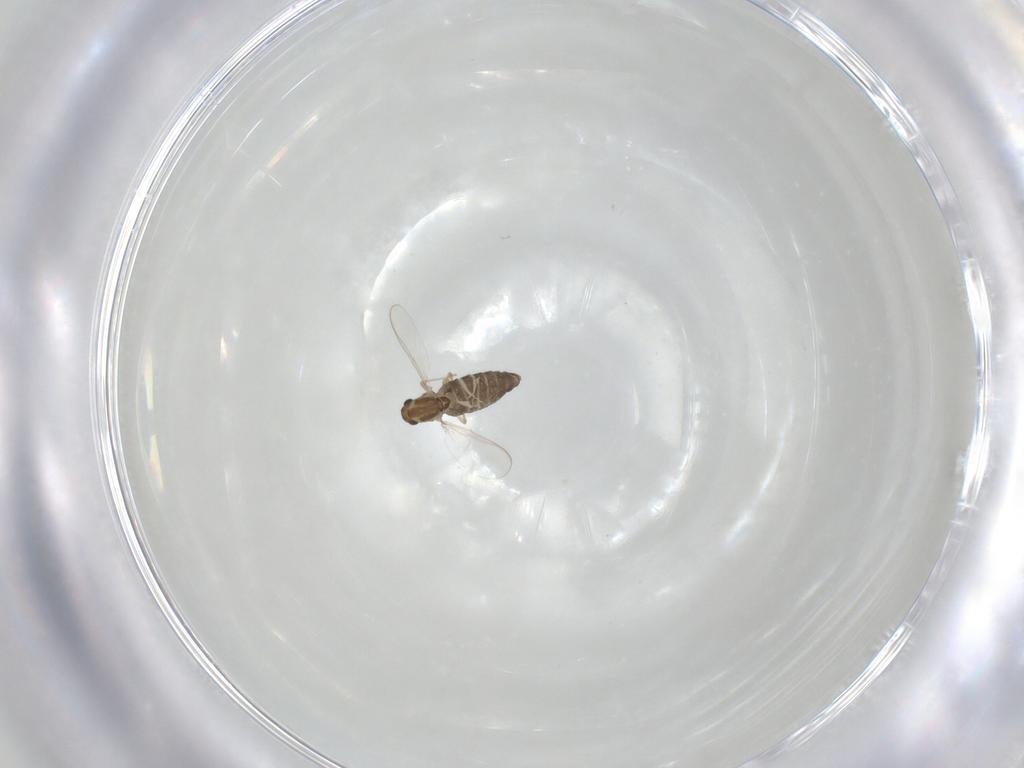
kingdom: Animalia
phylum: Arthropoda
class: Insecta
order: Diptera
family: Chironomidae
